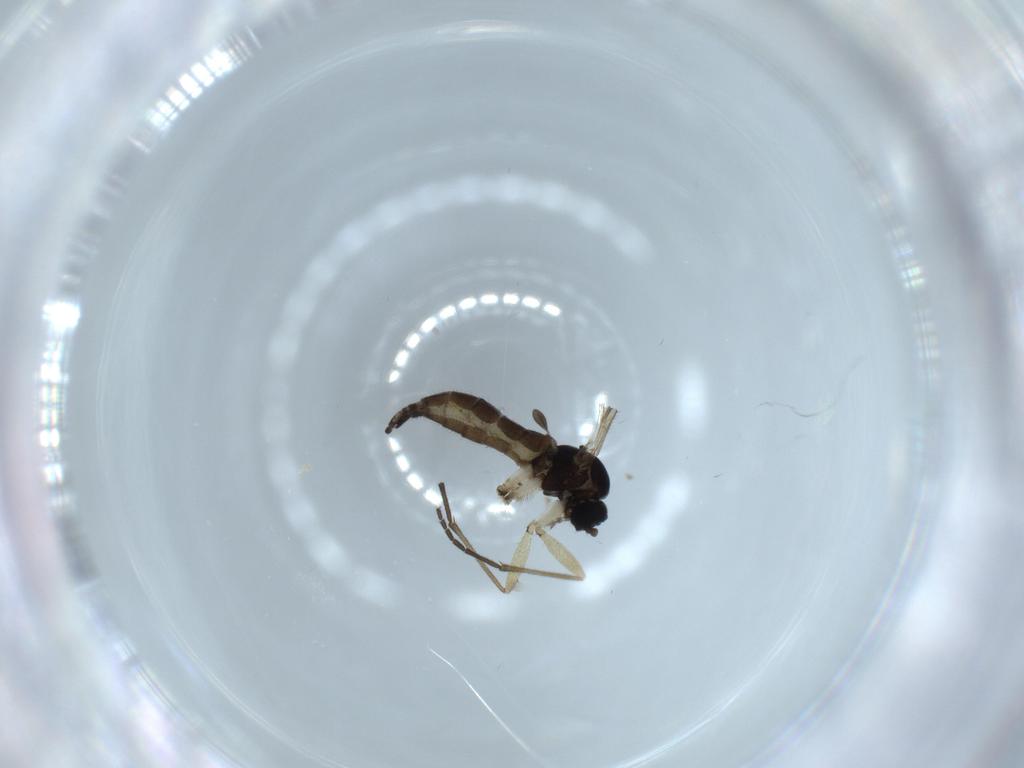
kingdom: Animalia
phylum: Arthropoda
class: Insecta
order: Diptera
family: Sciaridae
